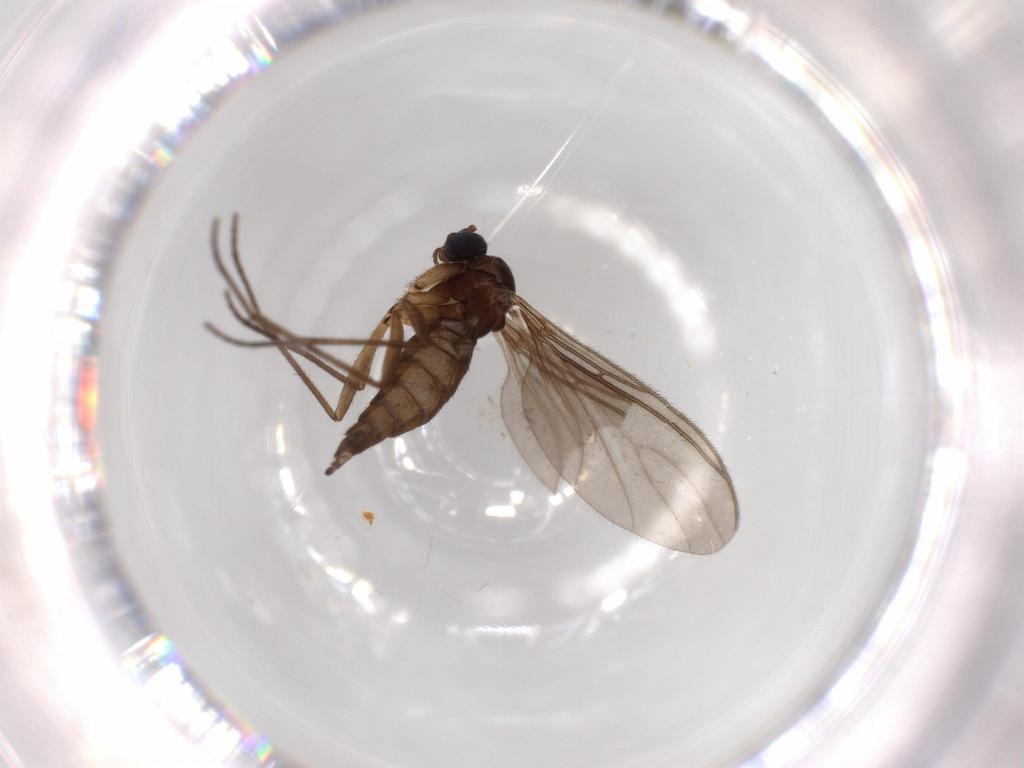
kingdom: Animalia
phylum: Arthropoda
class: Insecta
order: Diptera
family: Sciaridae
